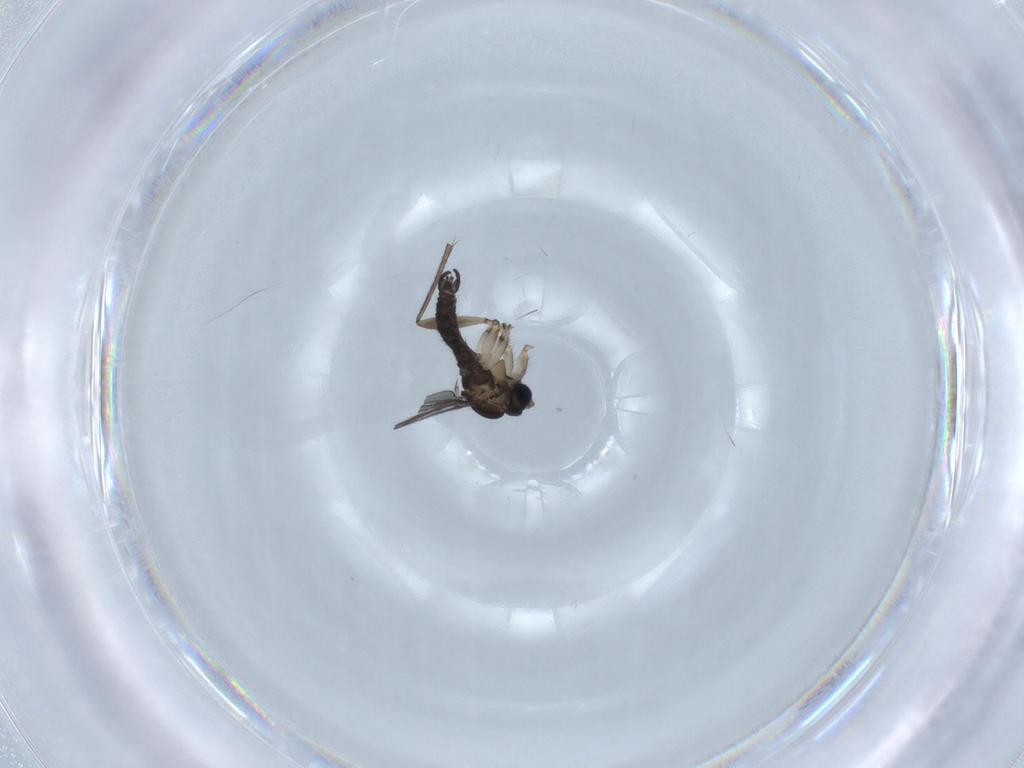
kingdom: Animalia
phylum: Arthropoda
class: Insecta
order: Diptera
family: Sciaridae
